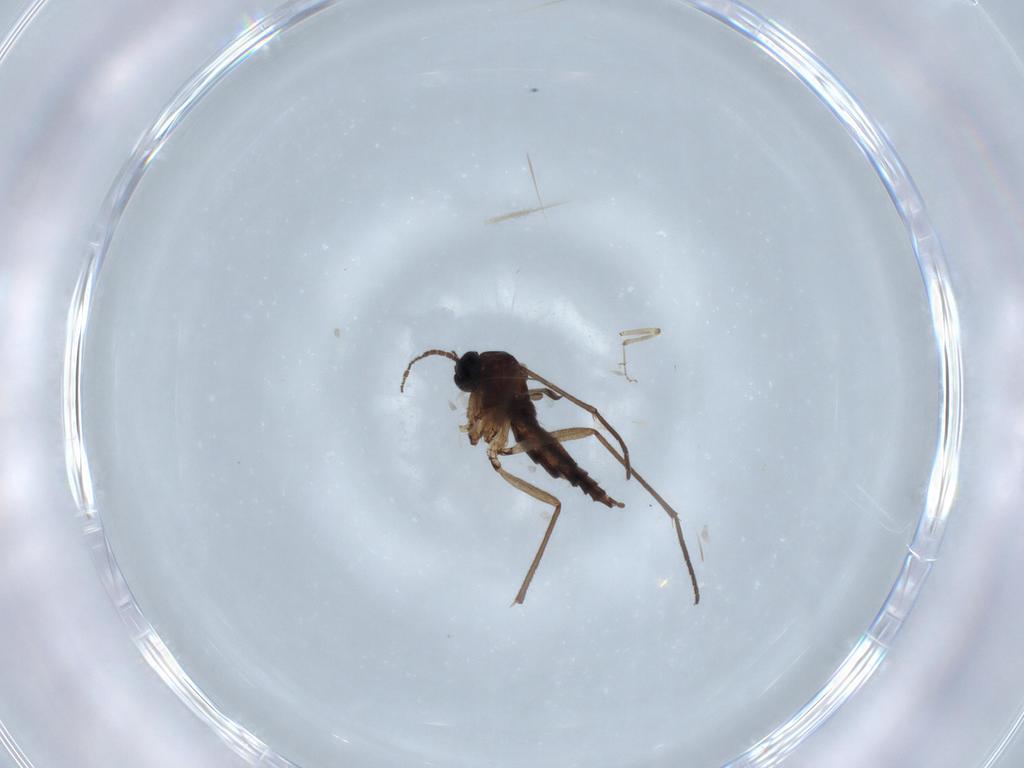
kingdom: Animalia
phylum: Arthropoda
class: Insecta
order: Diptera
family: Sciaridae
